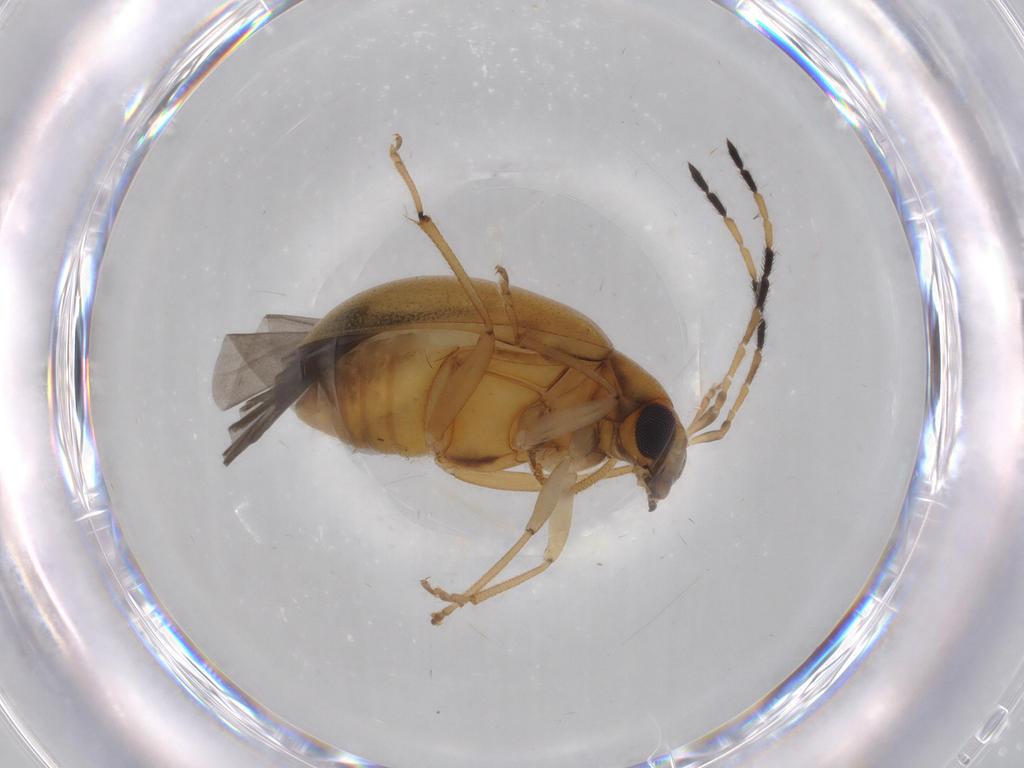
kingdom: Animalia
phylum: Arthropoda
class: Insecta
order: Coleoptera
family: Chrysomelidae
